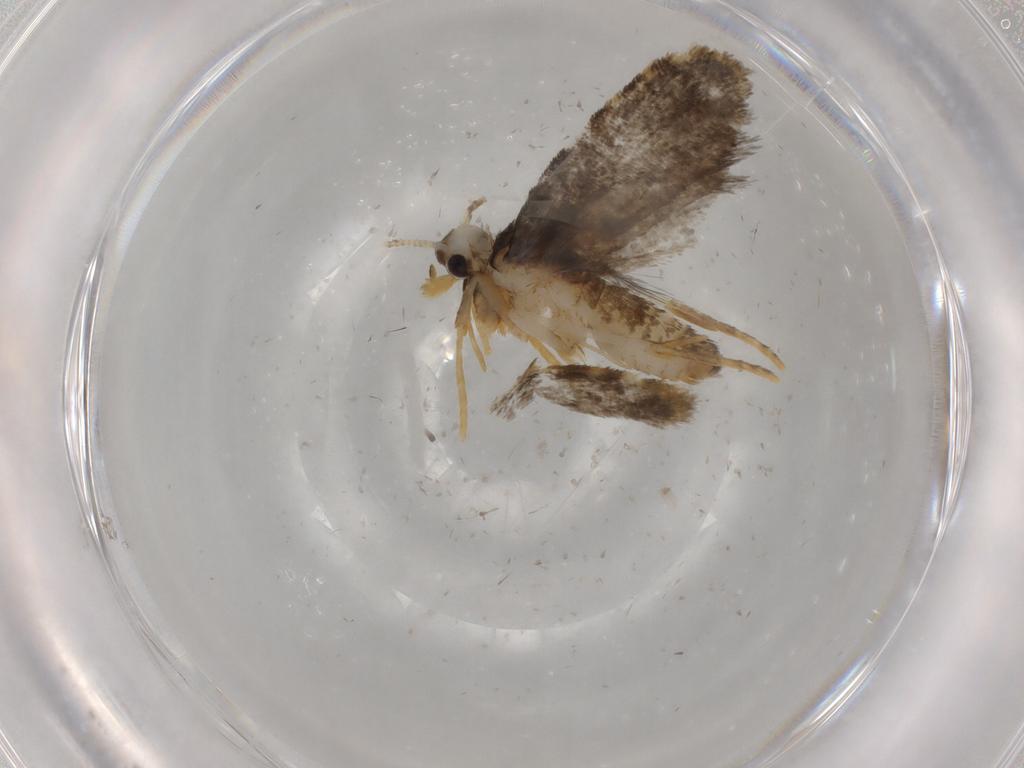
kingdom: Animalia
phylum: Arthropoda
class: Insecta
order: Lepidoptera
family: Psychidae
